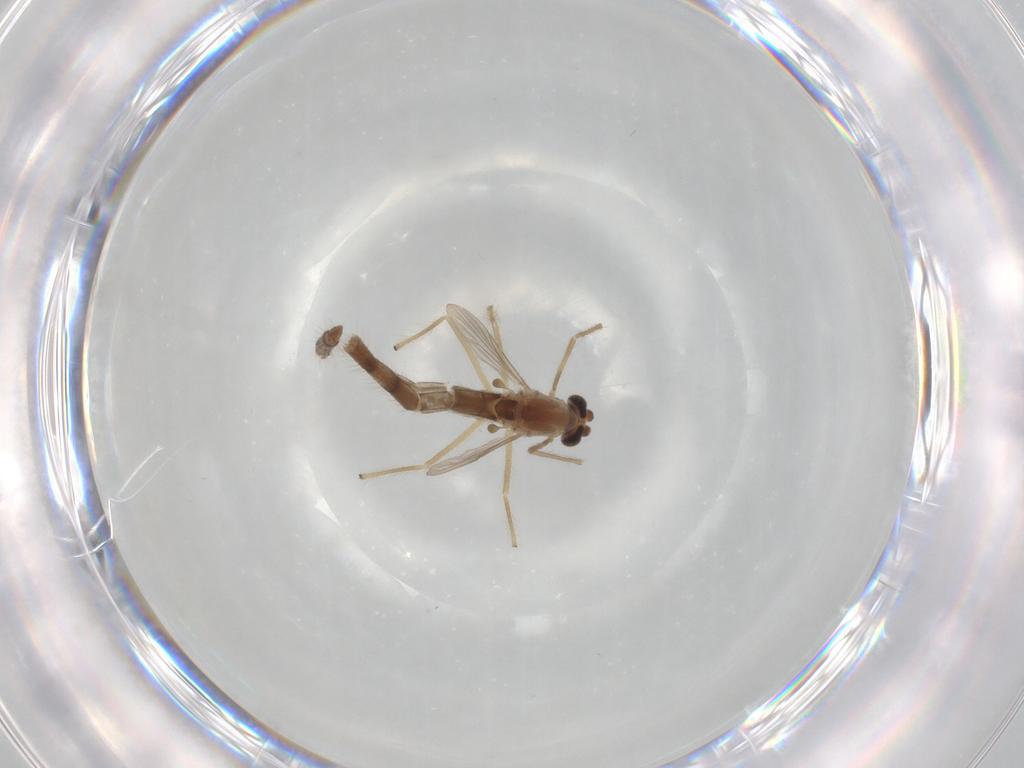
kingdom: Animalia
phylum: Arthropoda
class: Insecta
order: Diptera
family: Chironomidae
